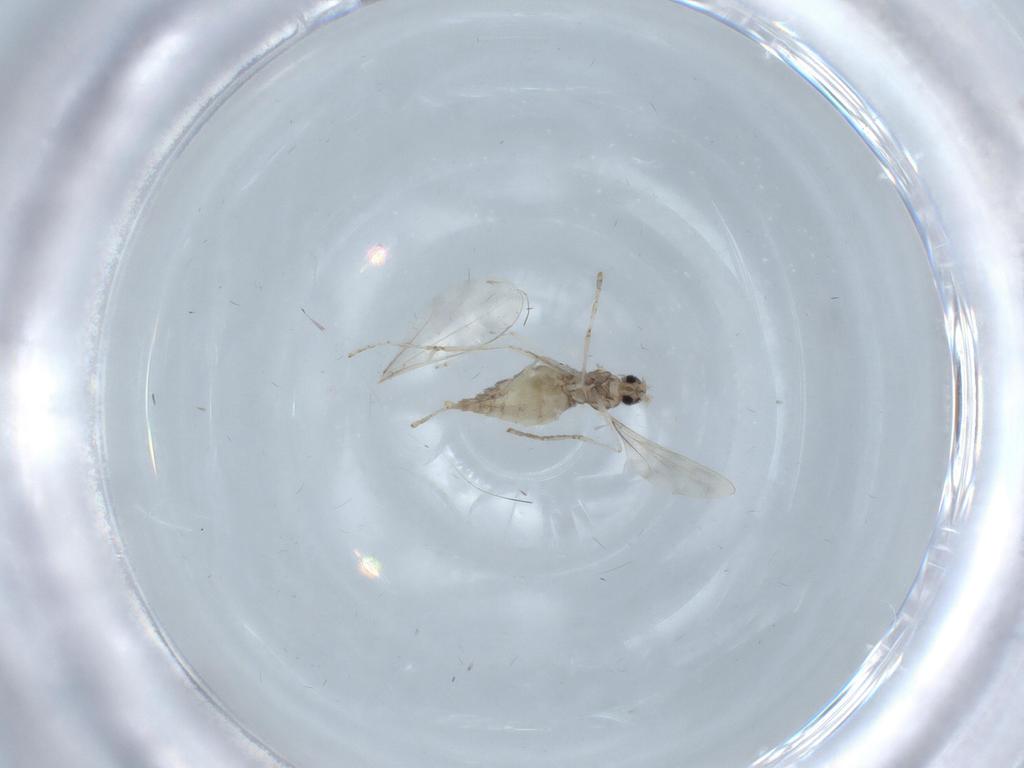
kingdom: Animalia
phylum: Arthropoda
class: Insecta
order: Diptera
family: Cecidomyiidae
